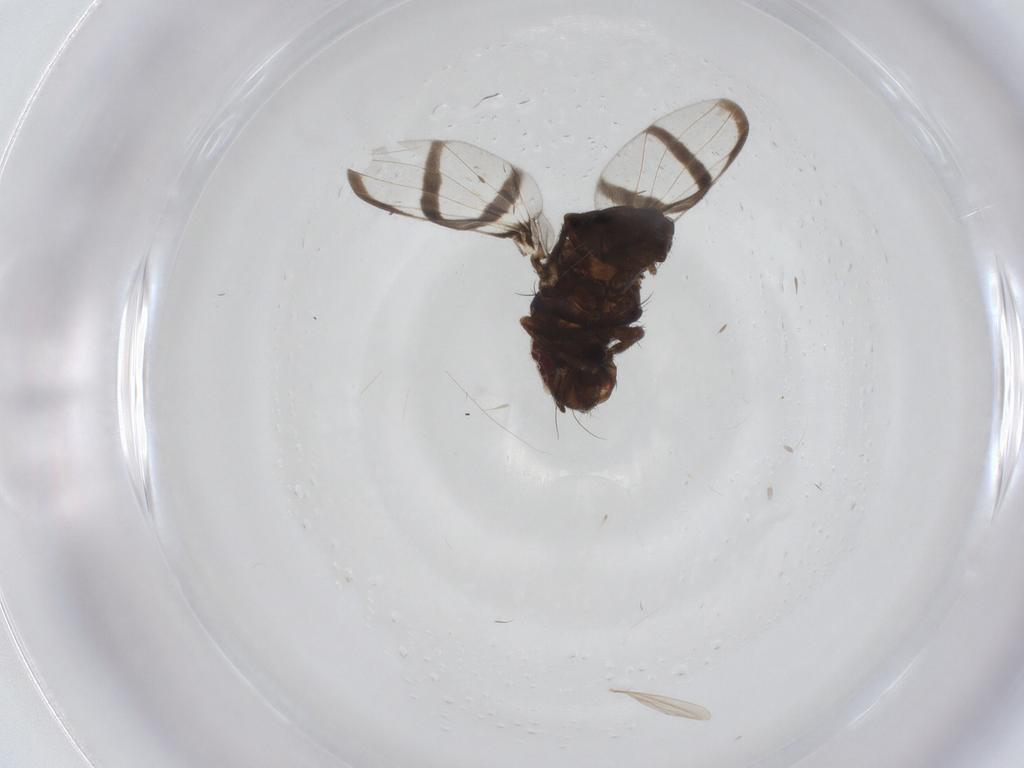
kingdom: Animalia
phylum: Arthropoda
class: Insecta
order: Diptera
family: Ulidiidae
